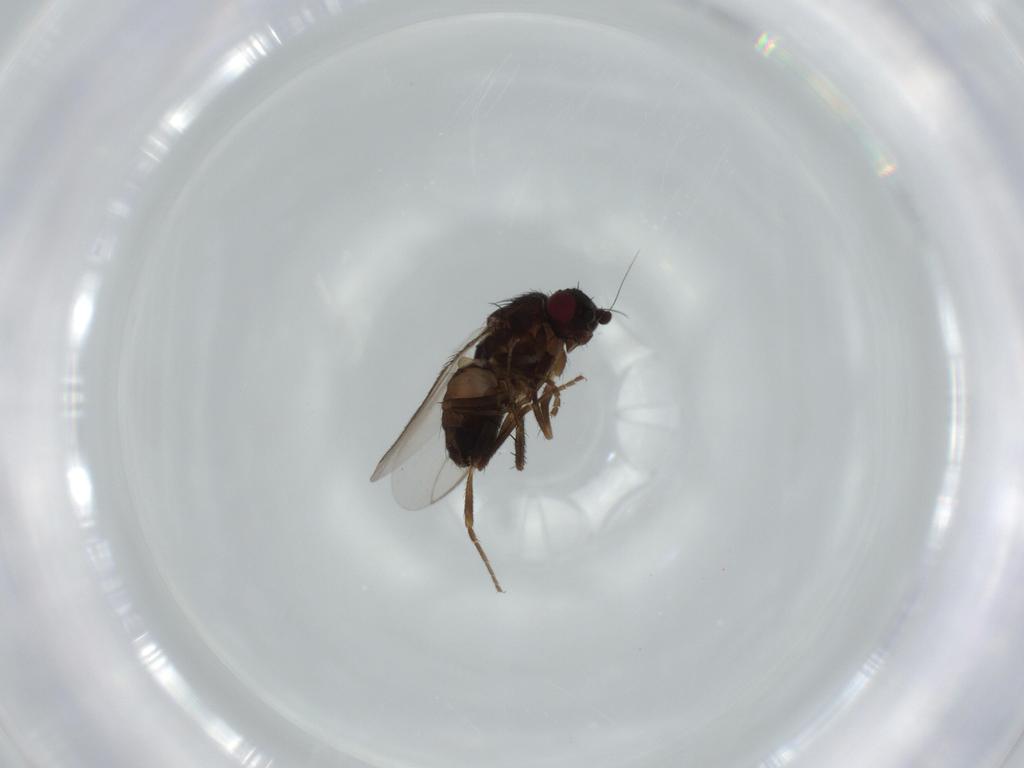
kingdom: Animalia
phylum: Arthropoda
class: Insecta
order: Diptera
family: Sphaeroceridae
